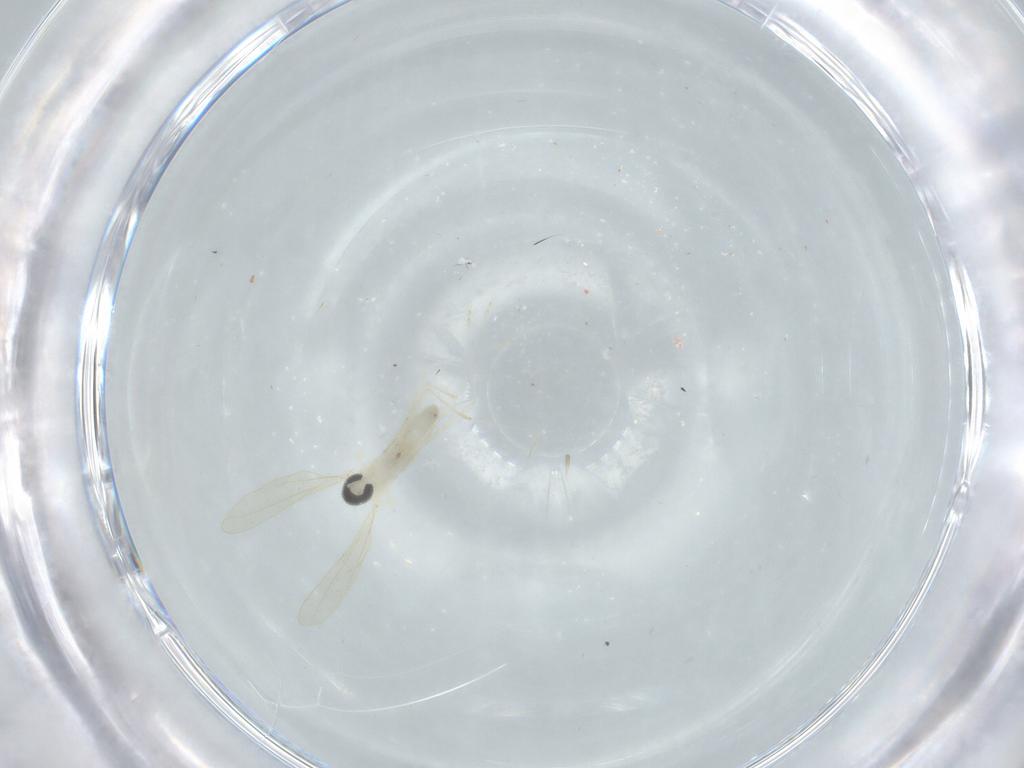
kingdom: Animalia
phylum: Arthropoda
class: Insecta
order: Diptera
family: Cecidomyiidae
